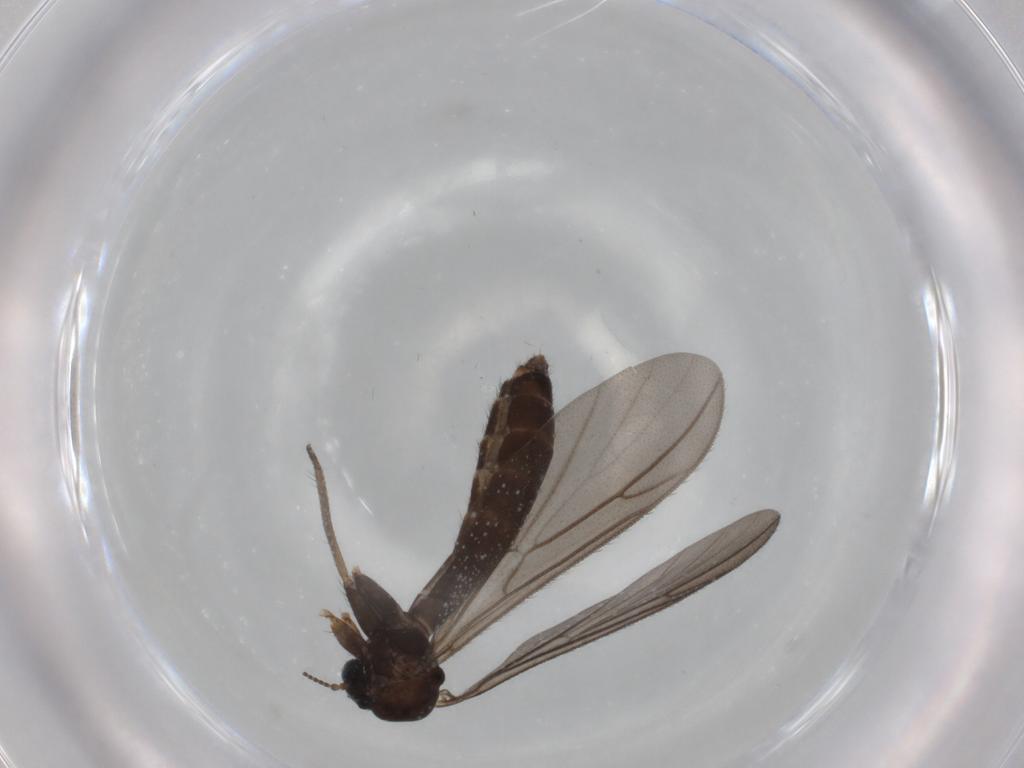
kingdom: Animalia
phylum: Arthropoda
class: Insecta
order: Diptera
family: Keroplatidae
